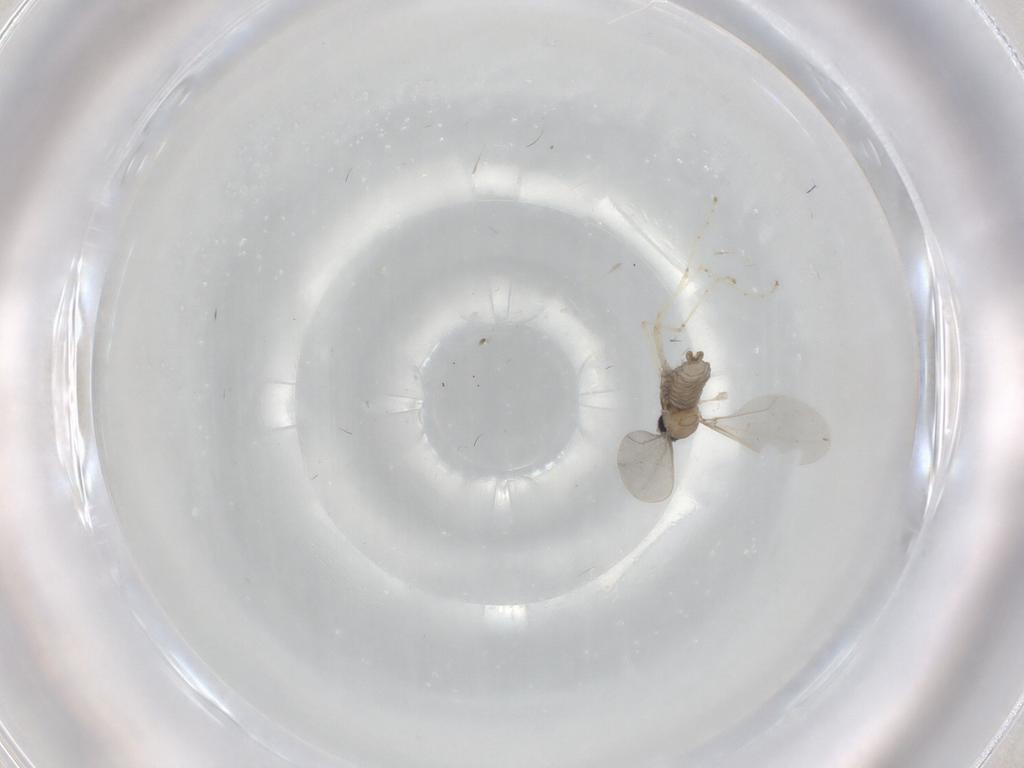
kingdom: Animalia
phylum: Arthropoda
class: Insecta
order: Diptera
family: Cecidomyiidae
